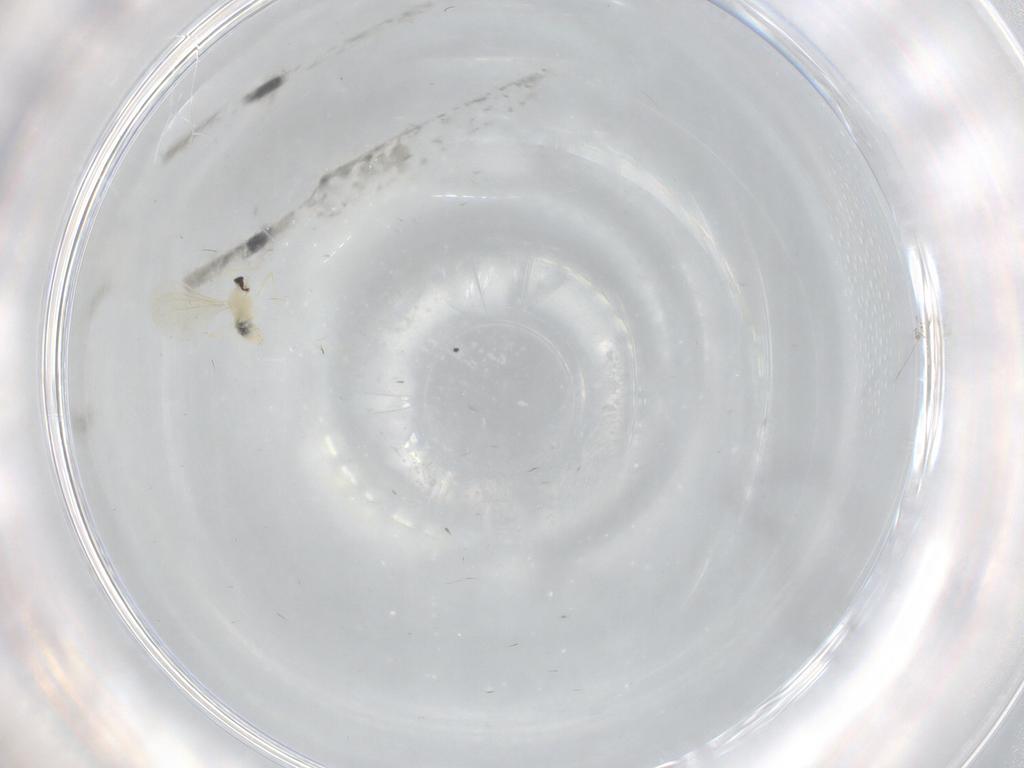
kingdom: Animalia
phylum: Arthropoda
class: Insecta
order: Diptera
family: Cecidomyiidae
